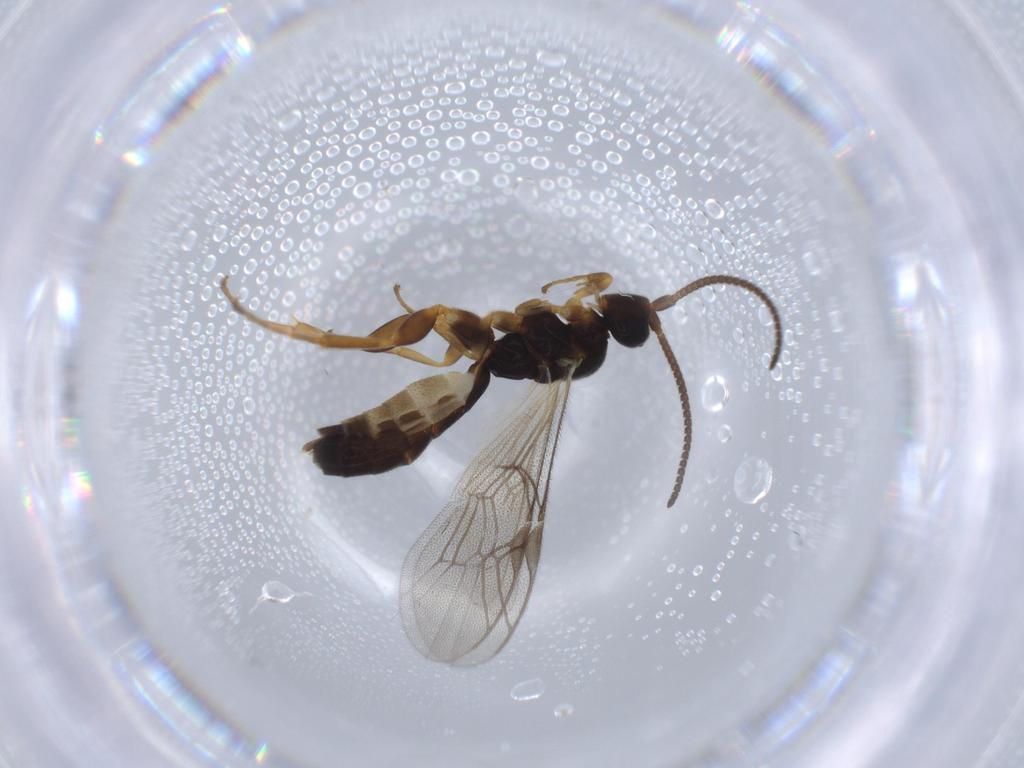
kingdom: Animalia
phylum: Arthropoda
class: Insecta
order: Hymenoptera
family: Ichneumonidae
